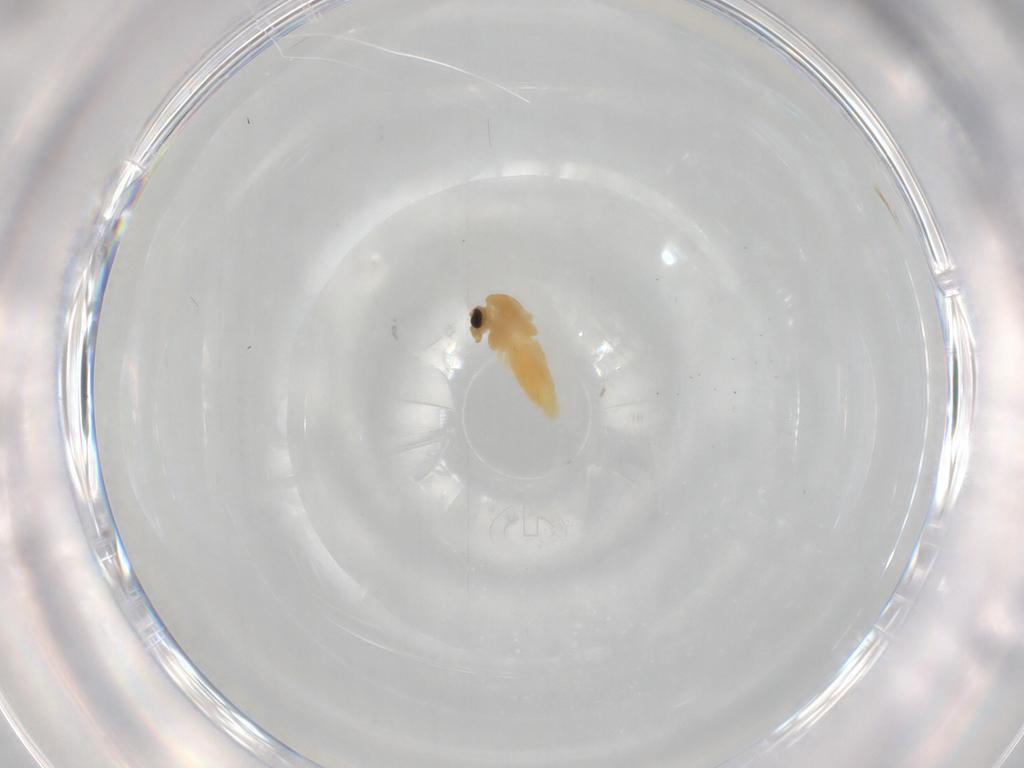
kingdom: Animalia
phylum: Arthropoda
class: Insecta
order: Diptera
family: Chironomidae
